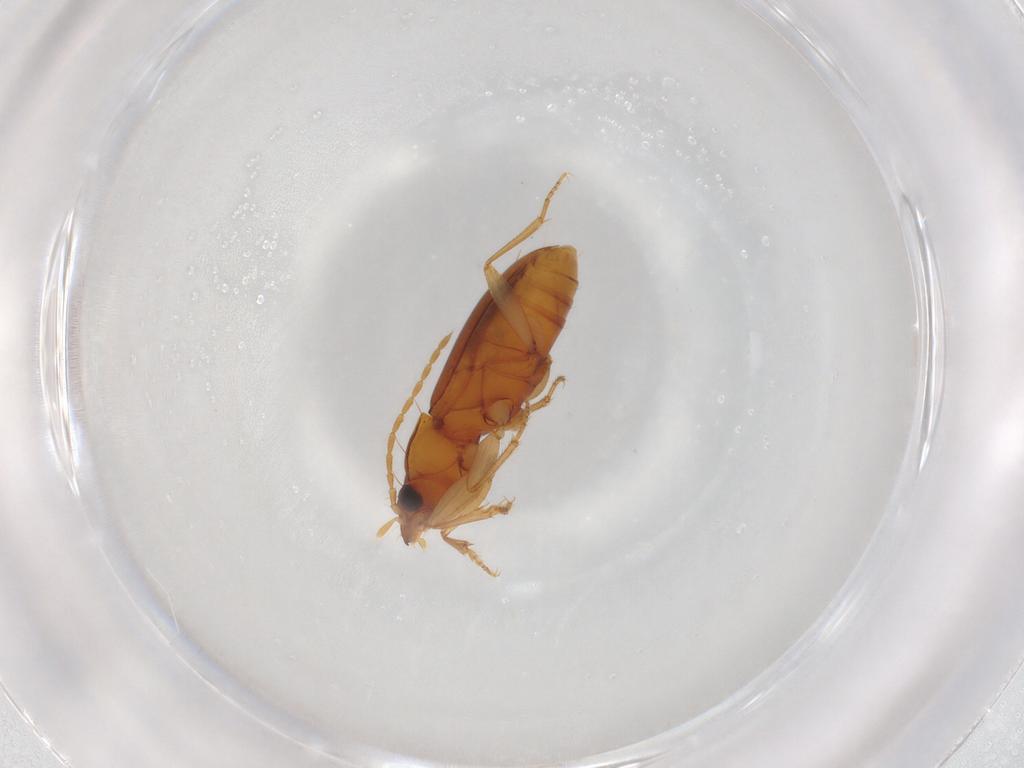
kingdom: Animalia
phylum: Arthropoda
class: Insecta
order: Coleoptera
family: Carabidae
